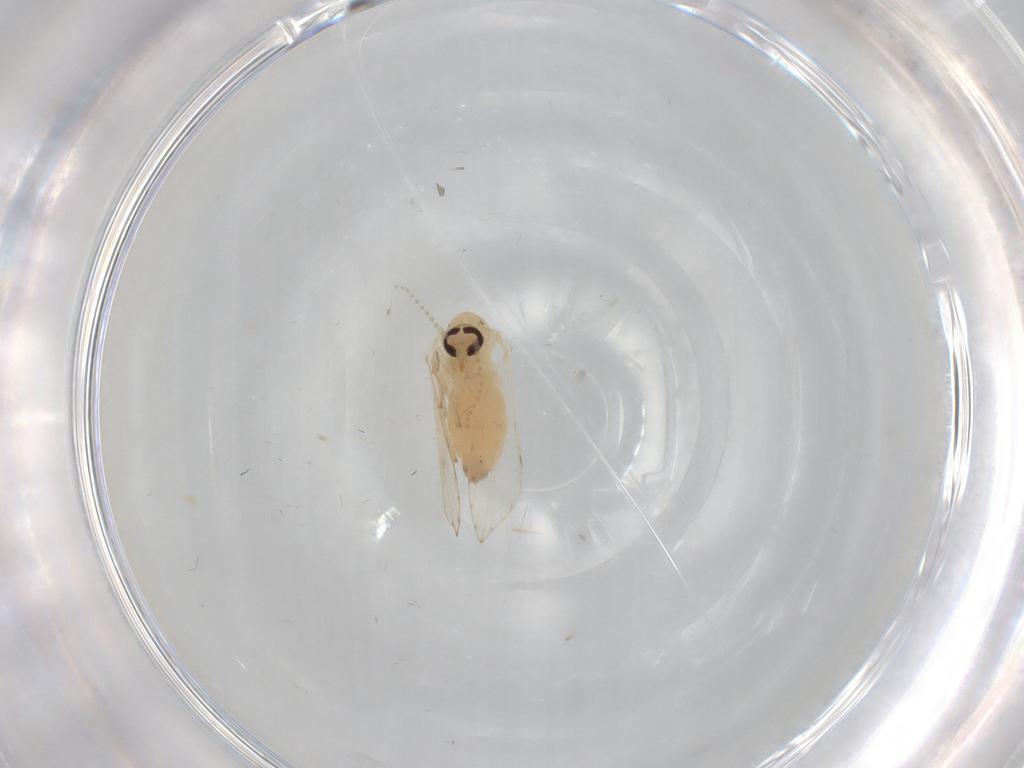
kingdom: Animalia
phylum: Arthropoda
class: Insecta
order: Diptera
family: Psychodidae
